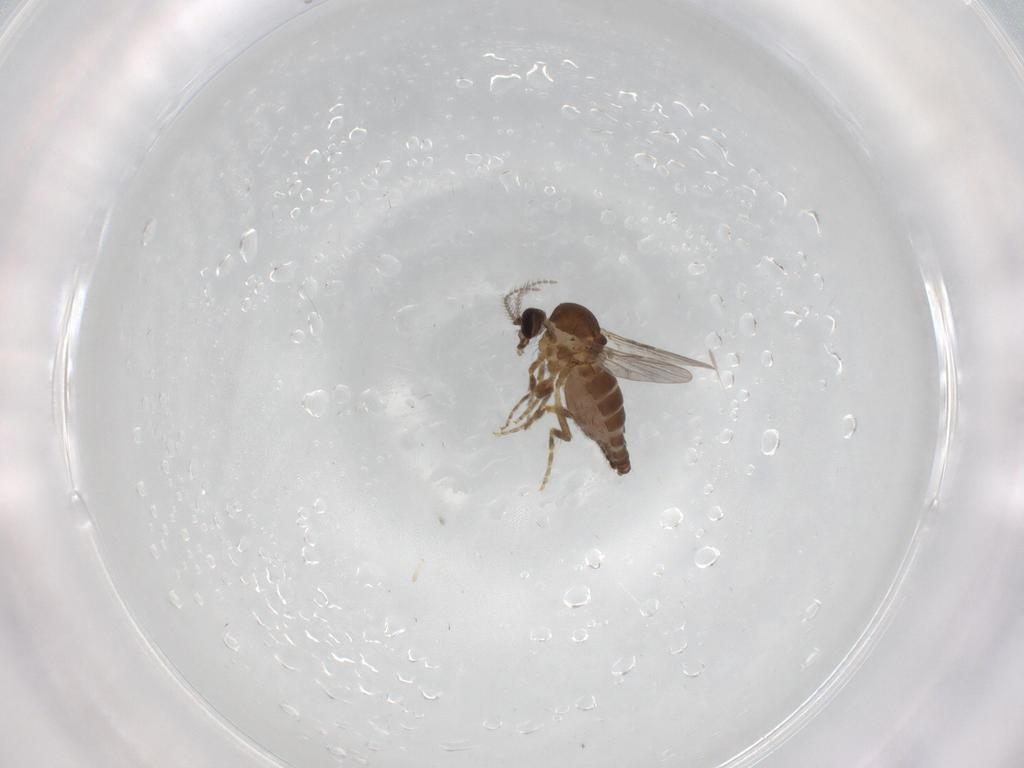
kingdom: Animalia
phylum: Arthropoda
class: Insecta
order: Diptera
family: Ceratopogonidae
